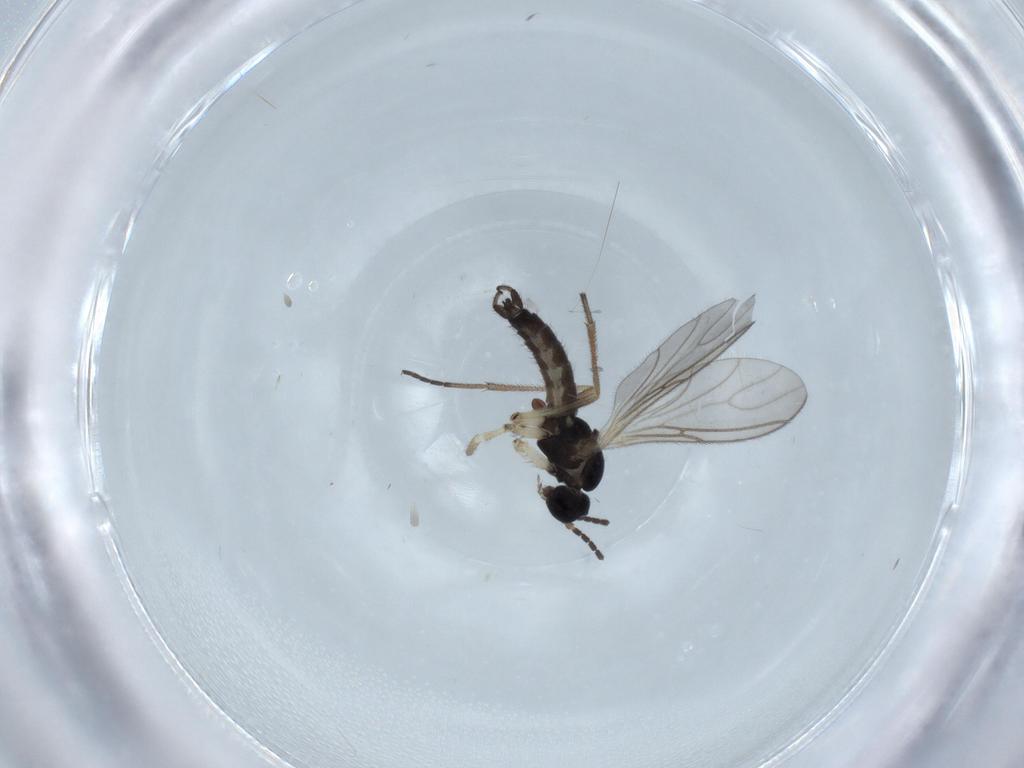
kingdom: Animalia
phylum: Arthropoda
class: Insecta
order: Diptera
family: Sciaridae
